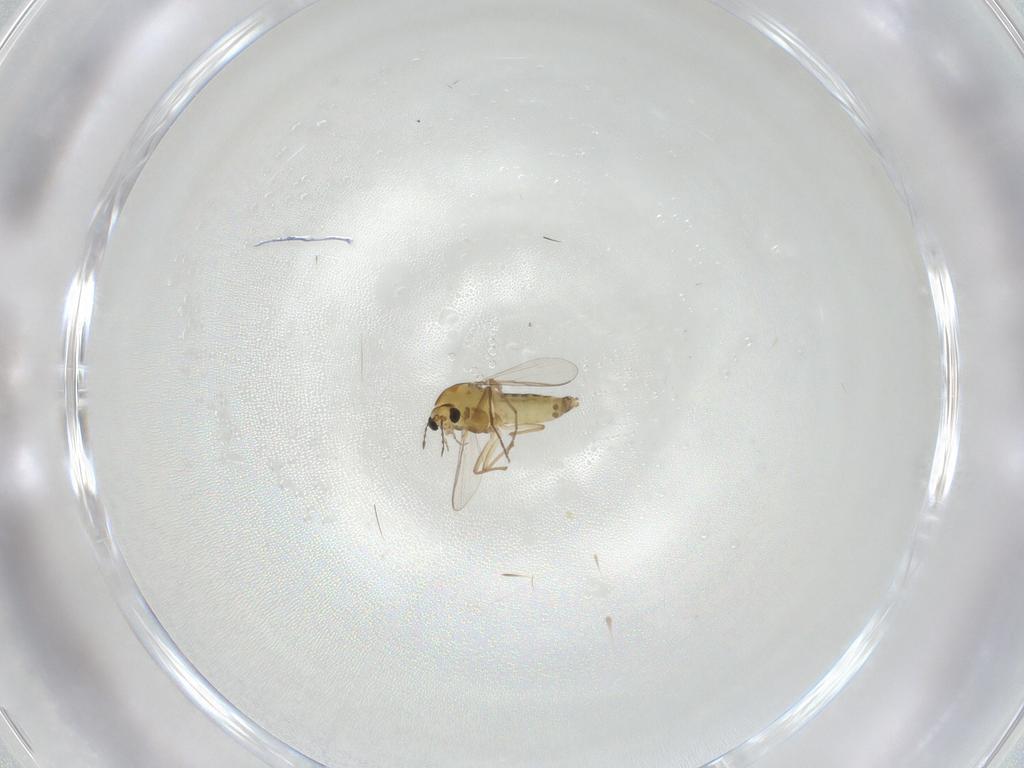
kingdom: Animalia
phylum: Arthropoda
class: Insecta
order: Diptera
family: Chironomidae
